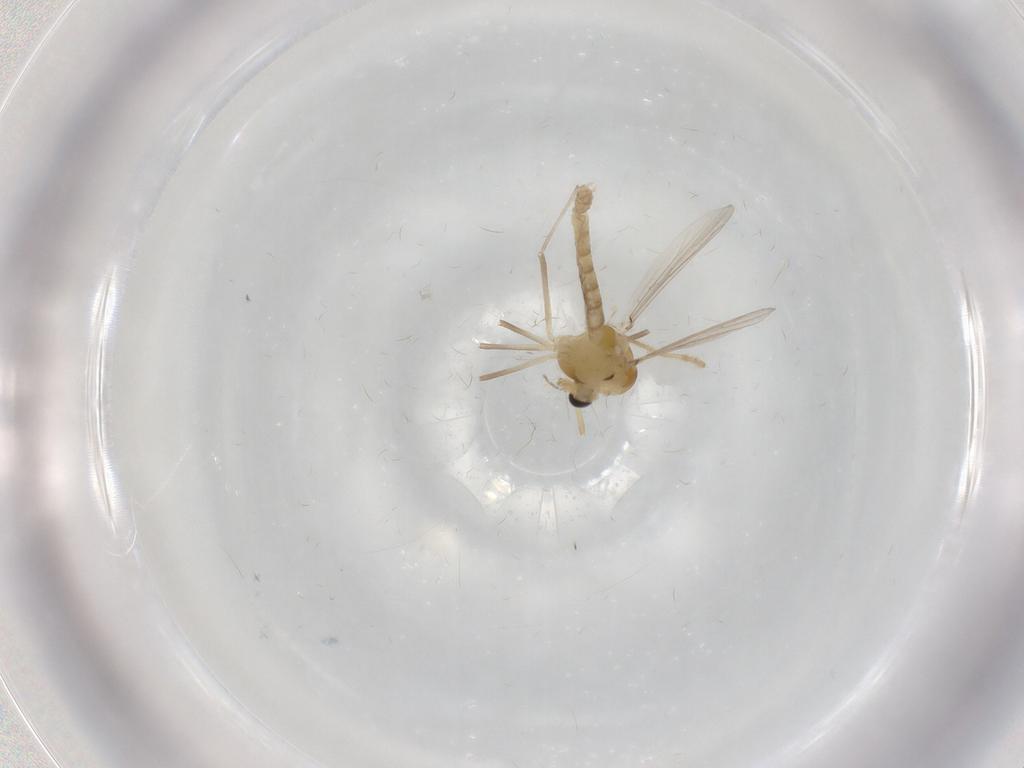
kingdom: Animalia
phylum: Arthropoda
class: Insecta
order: Diptera
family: Chironomidae
